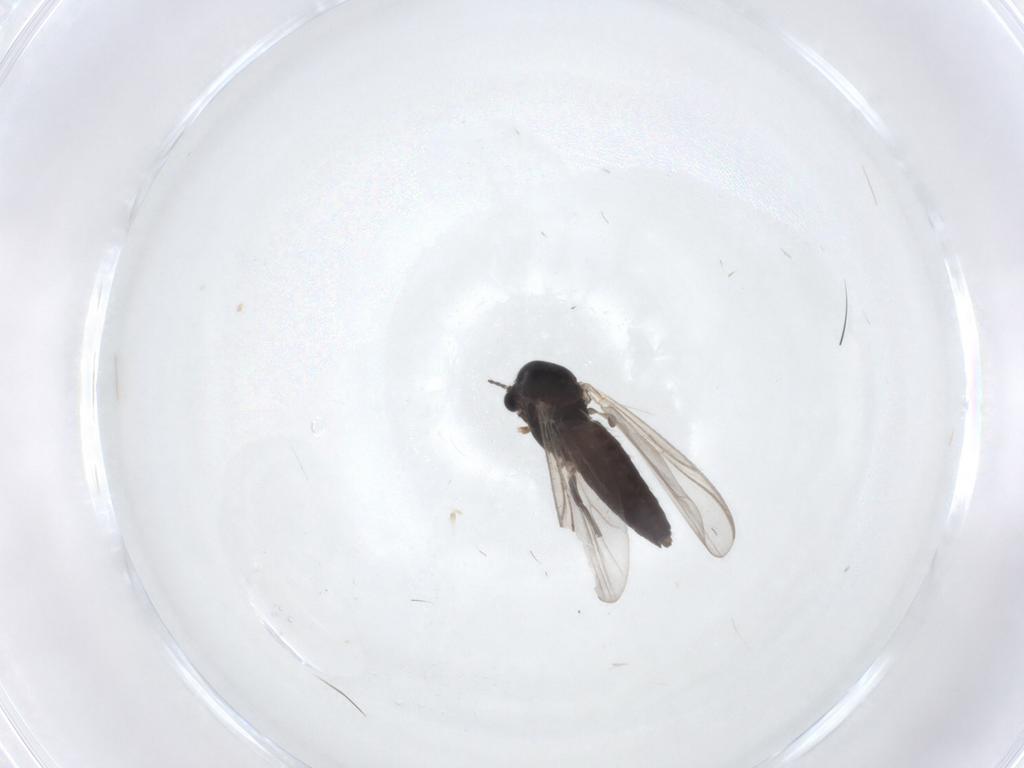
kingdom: Animalia
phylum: Arthropoda
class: Insecta
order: Diptera
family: Chironomidae
